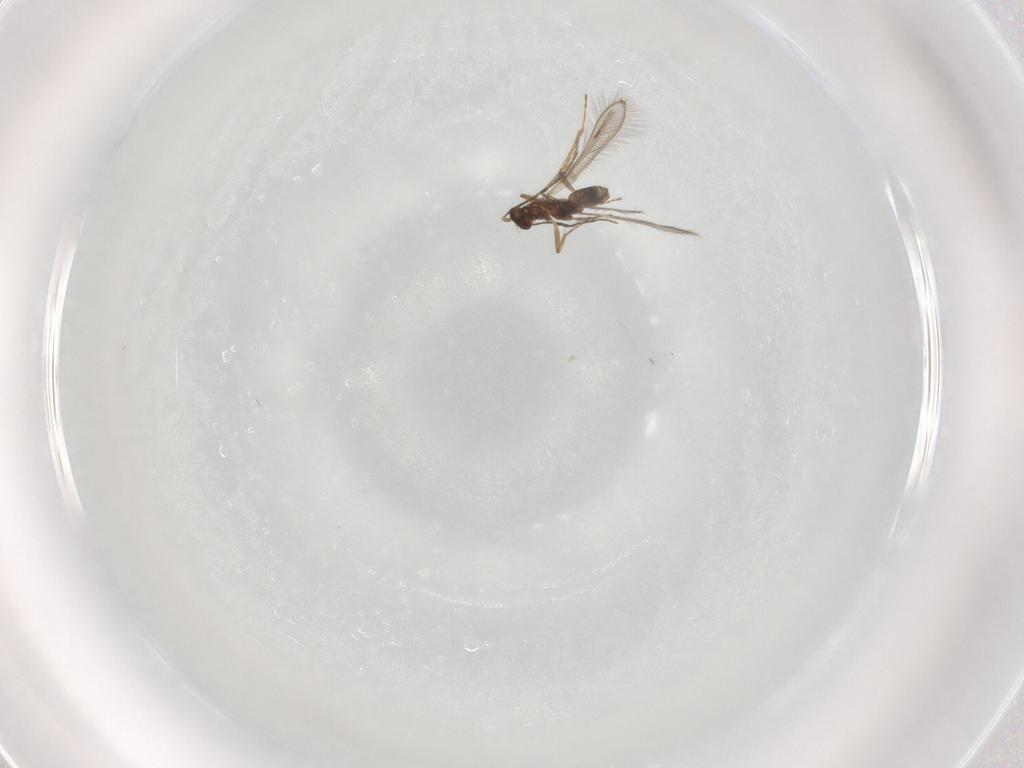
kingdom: Animalia
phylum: Arthropoda
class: Insecta
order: Hymenoptera
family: Mymaridae
